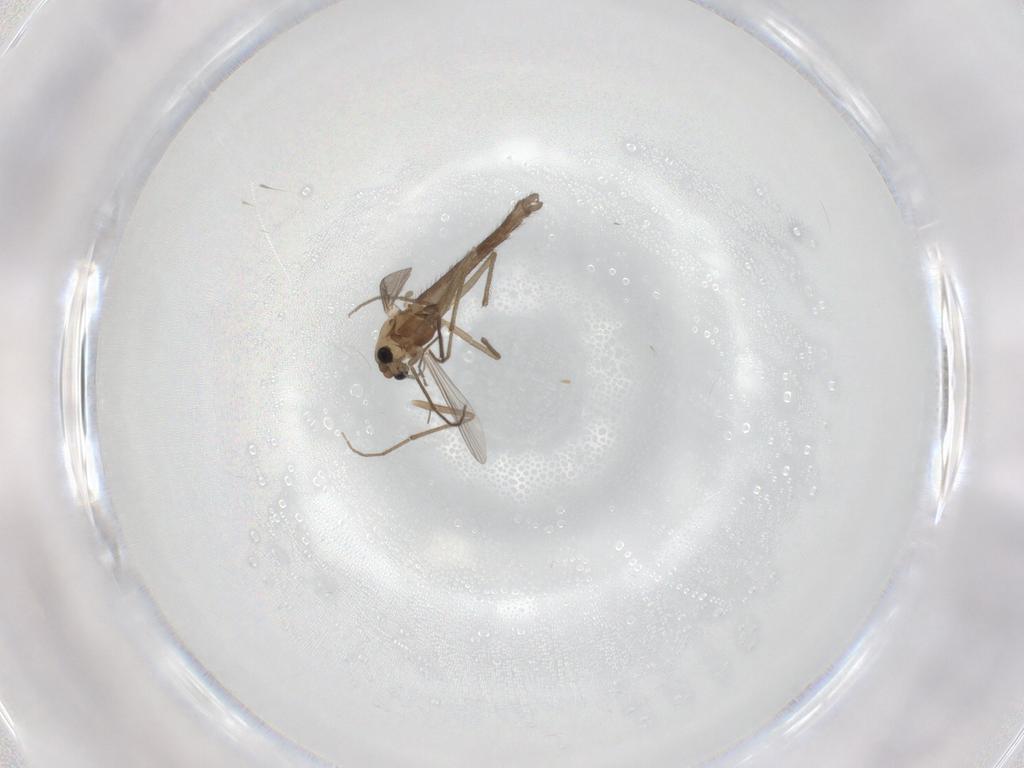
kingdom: Animalia
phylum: Arthropoda
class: Insecta
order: Diptera
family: Chironomidae
